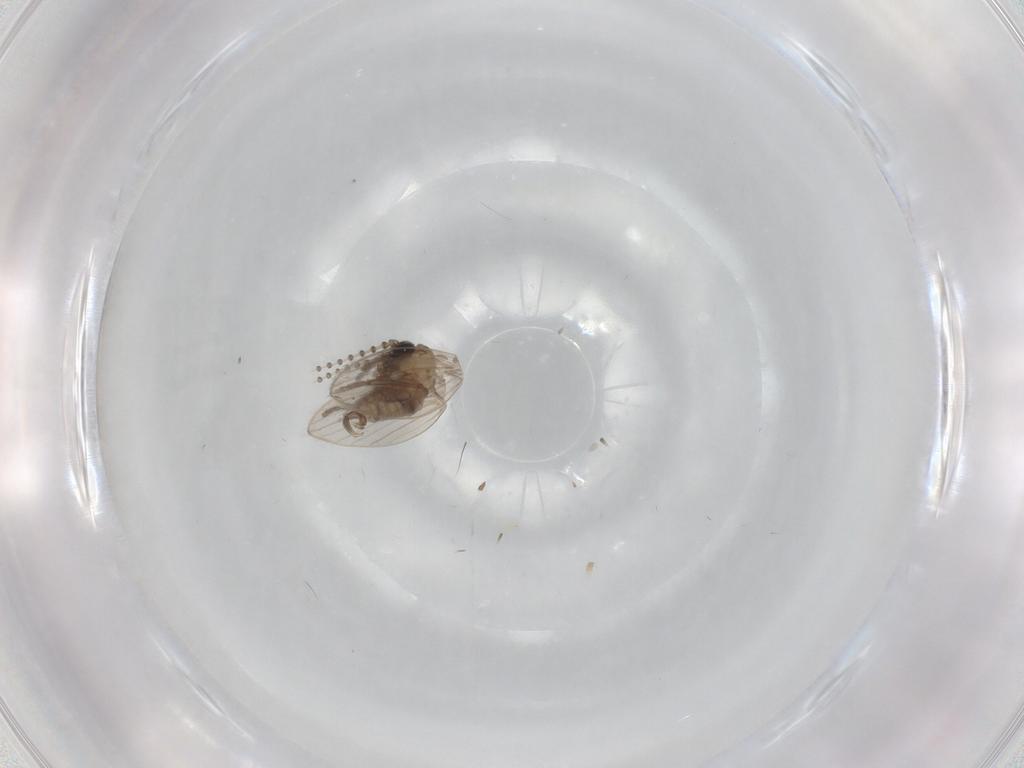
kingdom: Animalia
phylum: Arthropoda
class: Insecta
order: Diptera
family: Psychodidae
